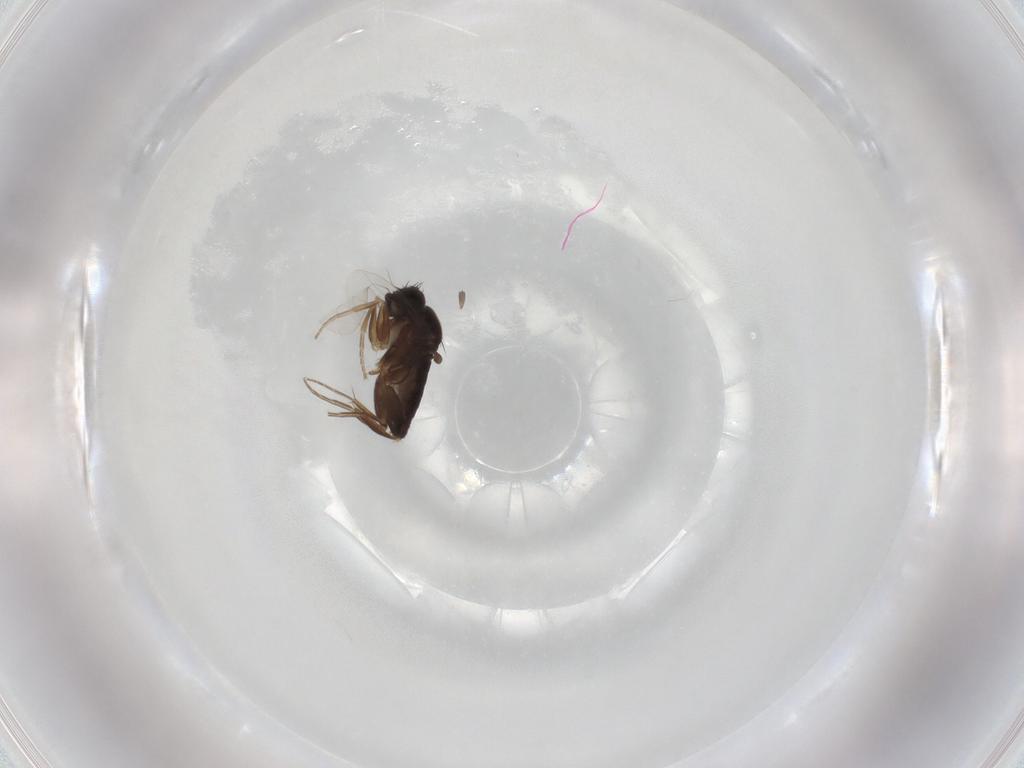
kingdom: Animalia
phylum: Arthropoda
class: Insecta
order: Diptera
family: Phoridae
